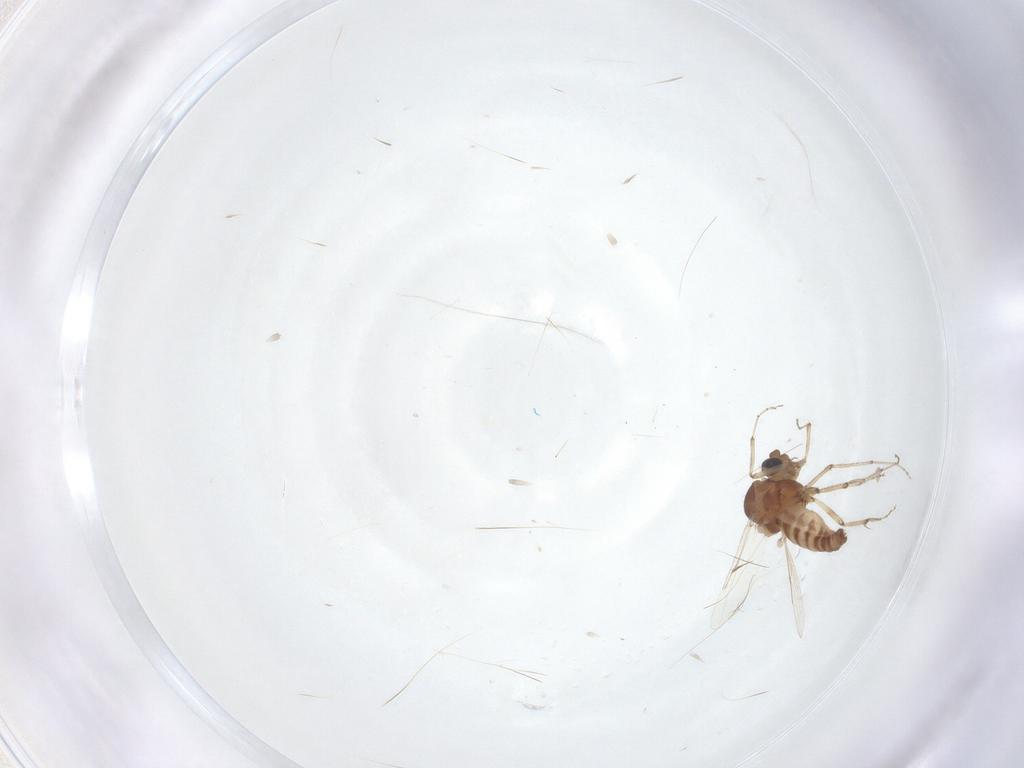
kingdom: Animalia
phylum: Arthropoda
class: Insecta
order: Diptera
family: Ceratopogonidae
